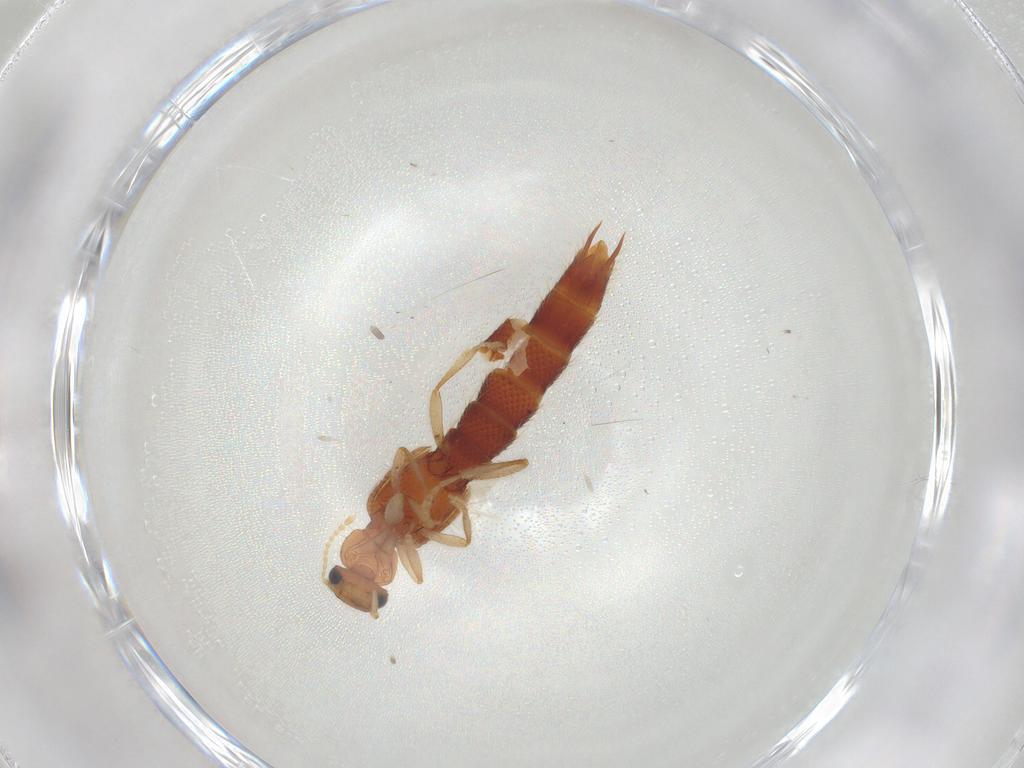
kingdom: Animalia
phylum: Arthropoda
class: Insecta
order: Coleoptera
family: Staphylinidae
